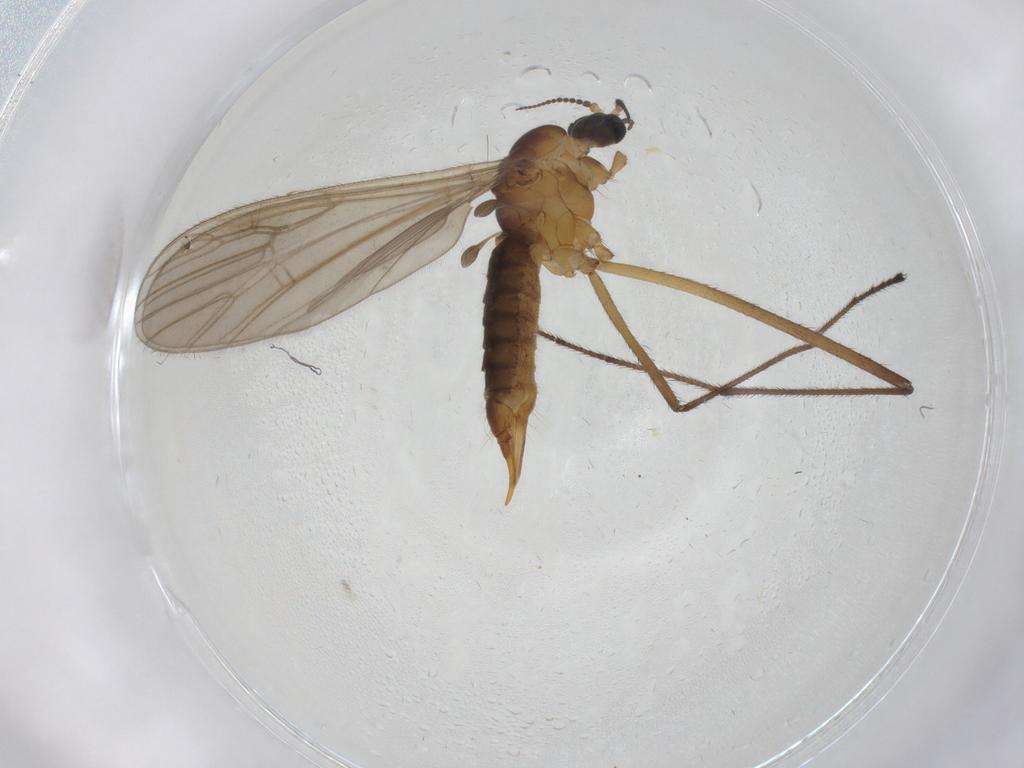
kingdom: Animalia
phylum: Arthropoda
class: Insecta
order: Diptera
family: Limoniidae
